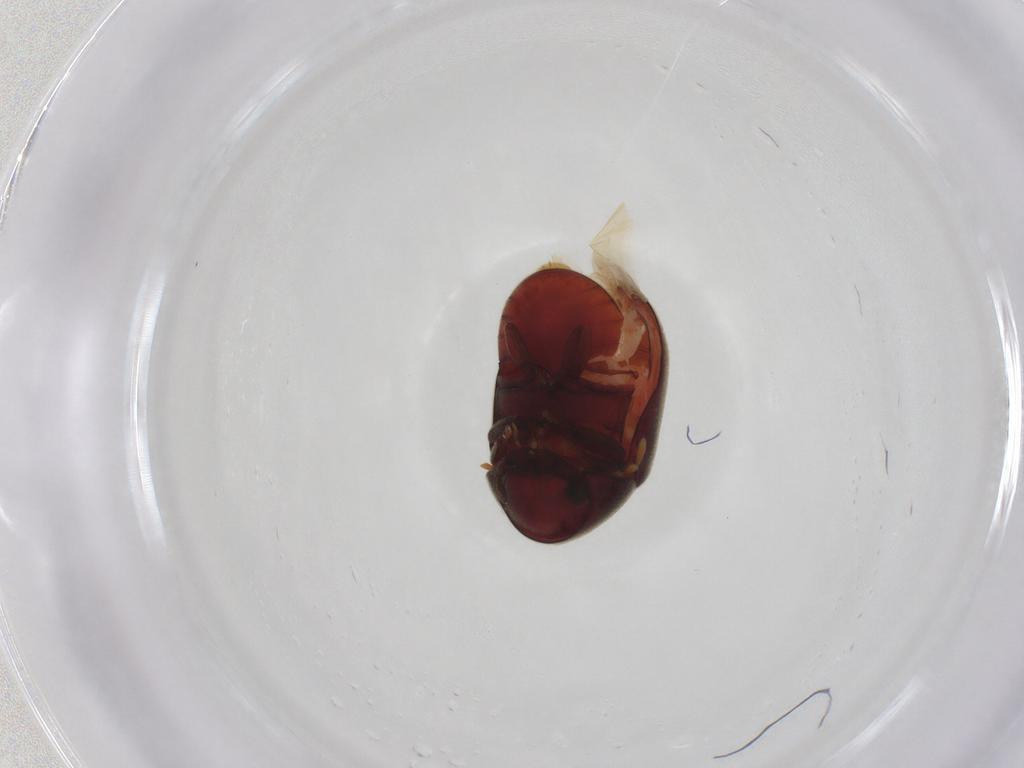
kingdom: Animalia
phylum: Arthropoda
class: Insecta
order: Coleoptera
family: Ptinidae
